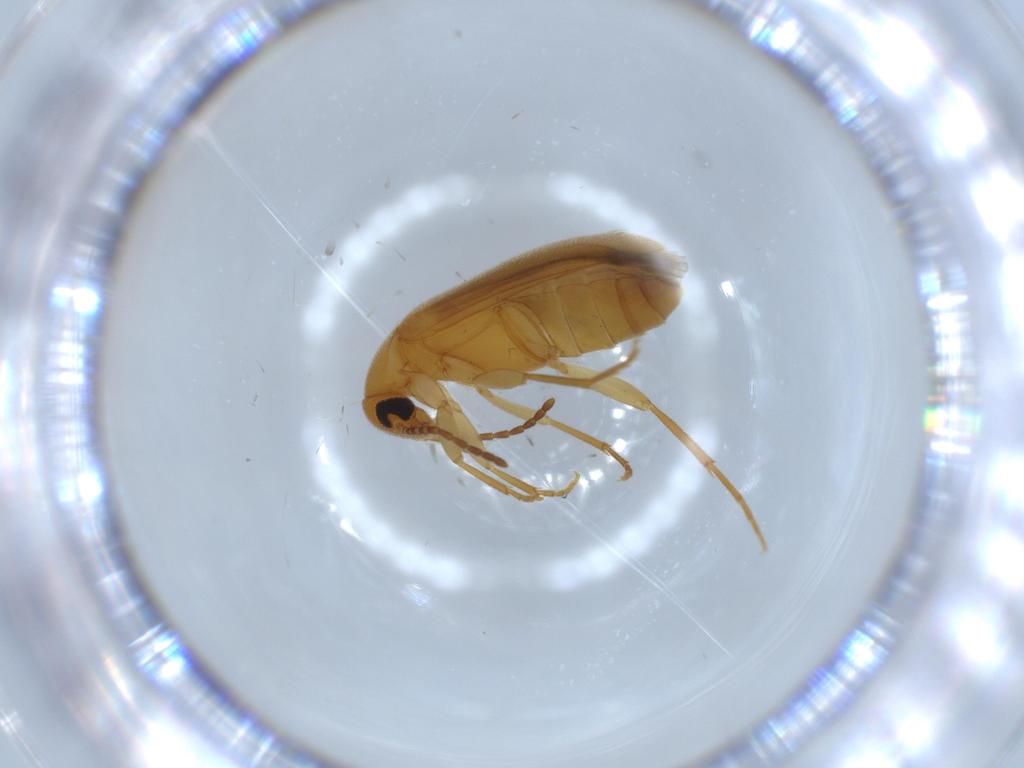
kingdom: Animalia
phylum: Arthropoda
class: Insecta
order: Coleoptera
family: Scraptiidae
